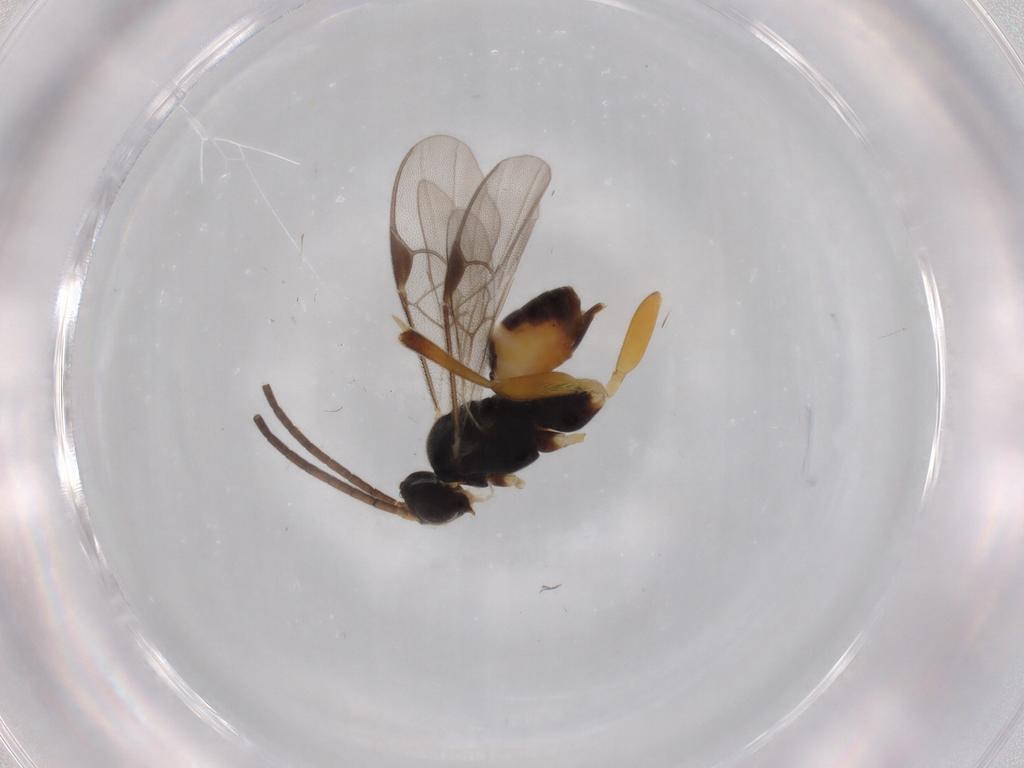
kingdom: Animalia
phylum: Arthropoda
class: Insecta
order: Hymenoptera
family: Braconidae
